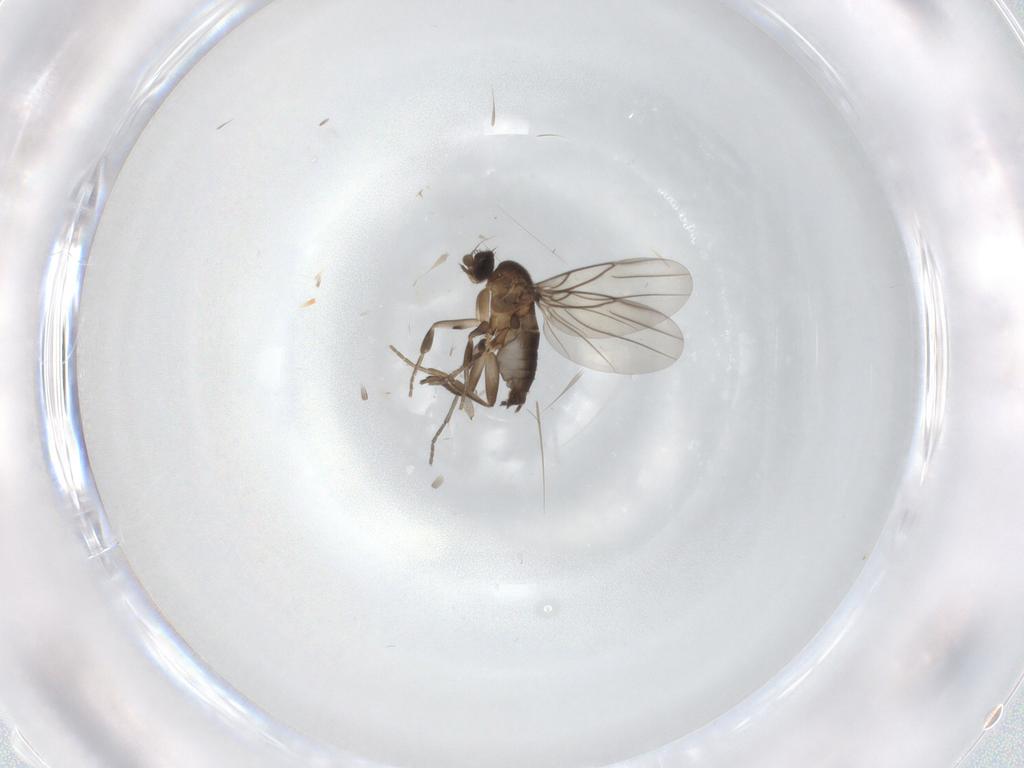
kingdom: Animalia
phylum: Arthropoda
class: Insecta
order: Diptera
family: Phoridae
